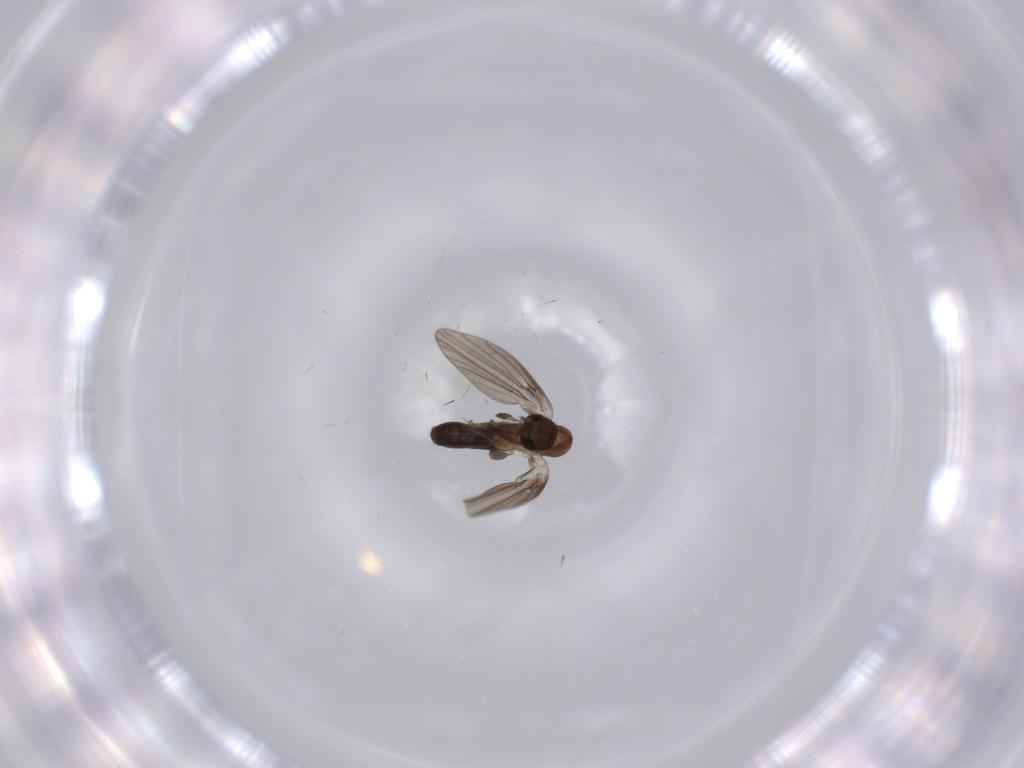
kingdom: Animalia
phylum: Arthropoda
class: Insecta
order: Diptera
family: Psychodidae
